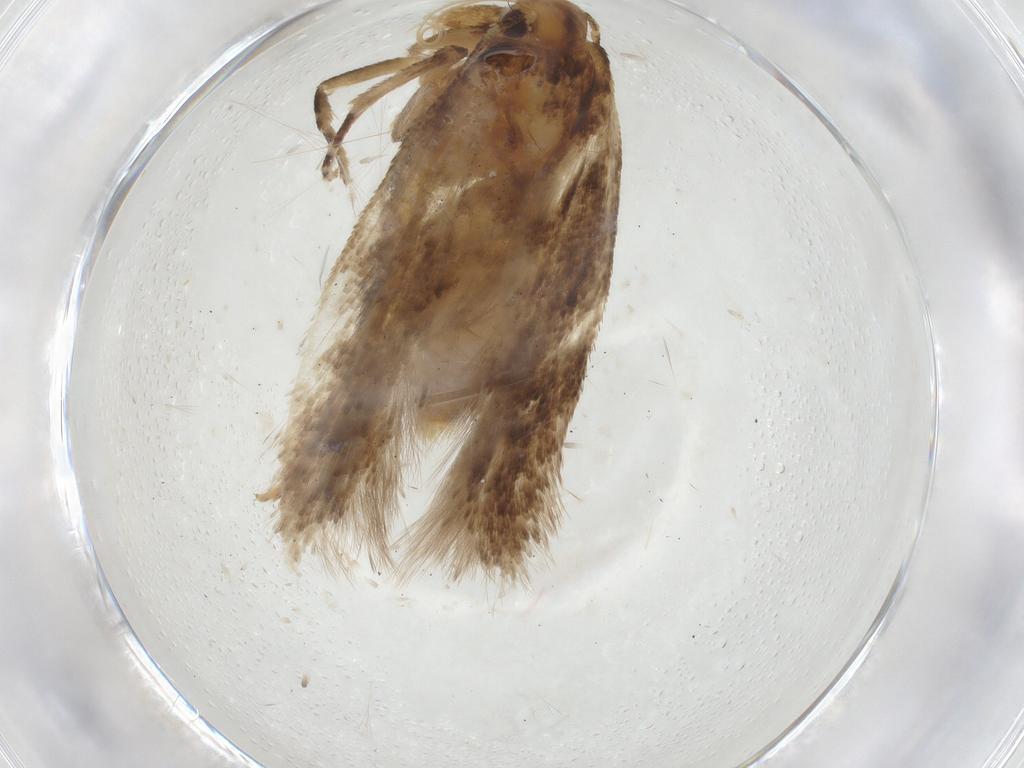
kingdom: Animalia
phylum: Arthropoda
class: Insecta
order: Lepidoptera
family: Gelechiidae
